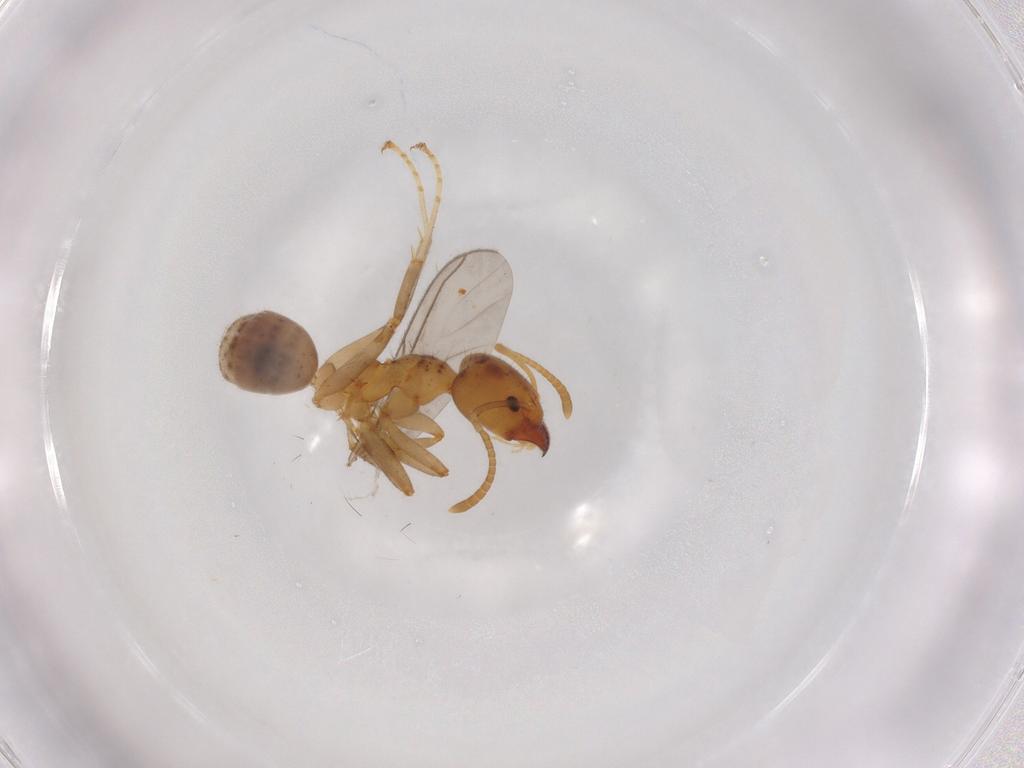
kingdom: Animalia
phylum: Arthropoda
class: Insecta
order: Hymenoptera
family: Formicidae
